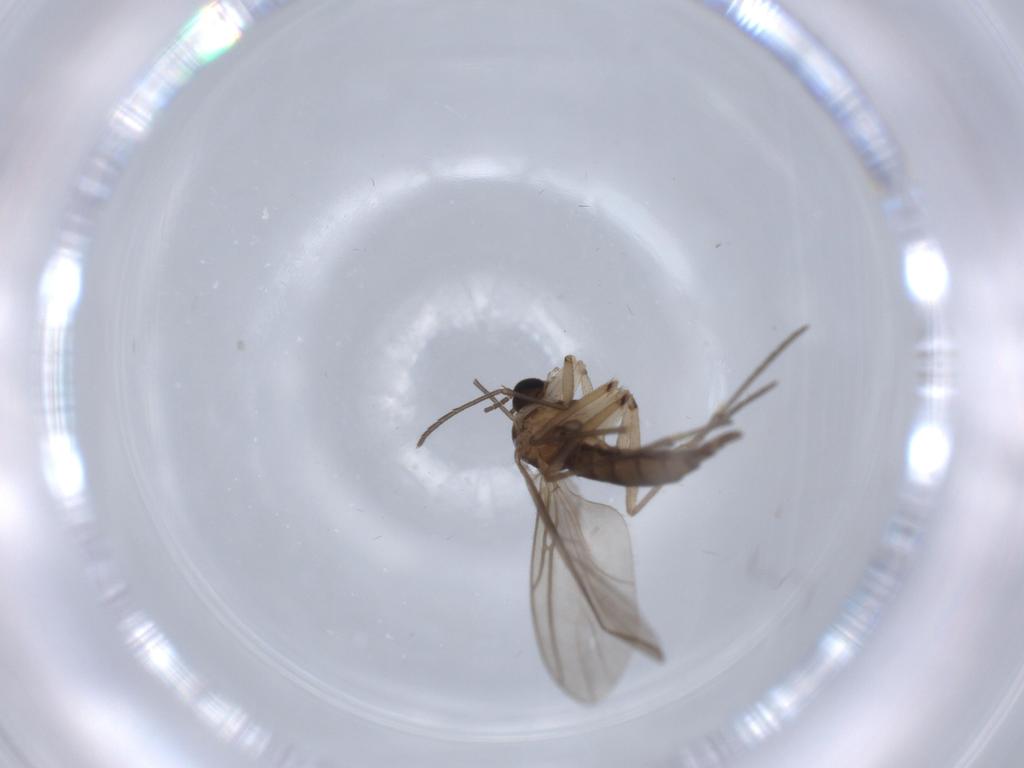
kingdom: Animalia
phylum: Arthropoda
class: Insecta
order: Diptera
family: Sciaridae
